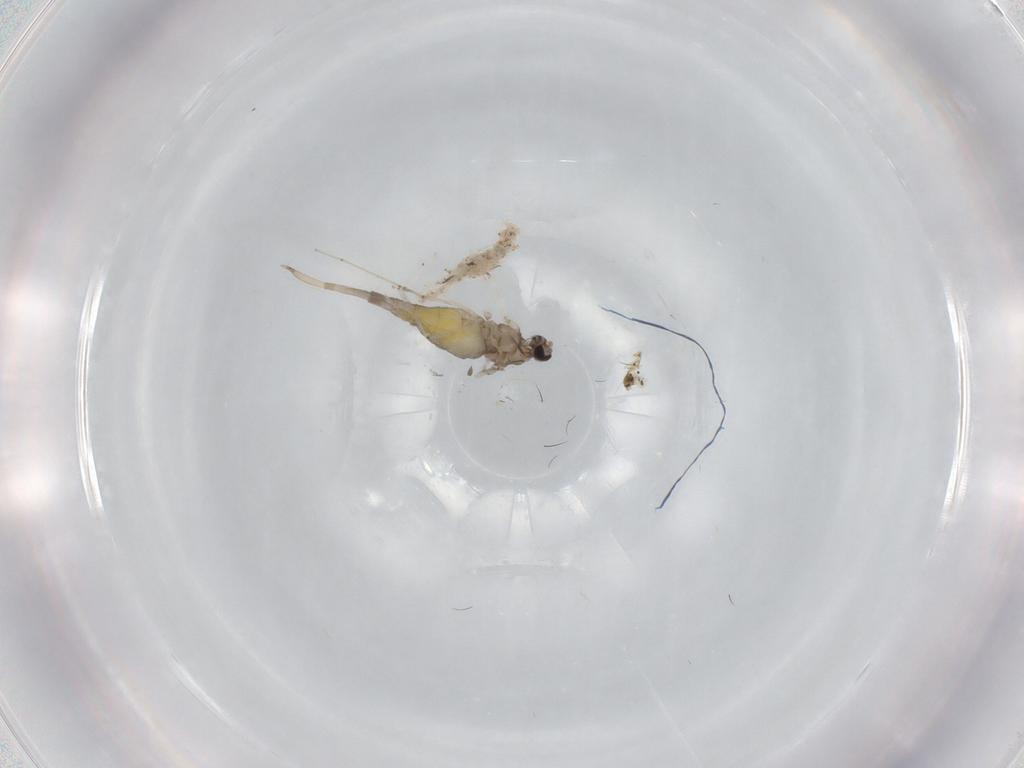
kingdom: Animalia
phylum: Arthropoda
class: Insecta
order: Diptera
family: Cecidomyiidae
